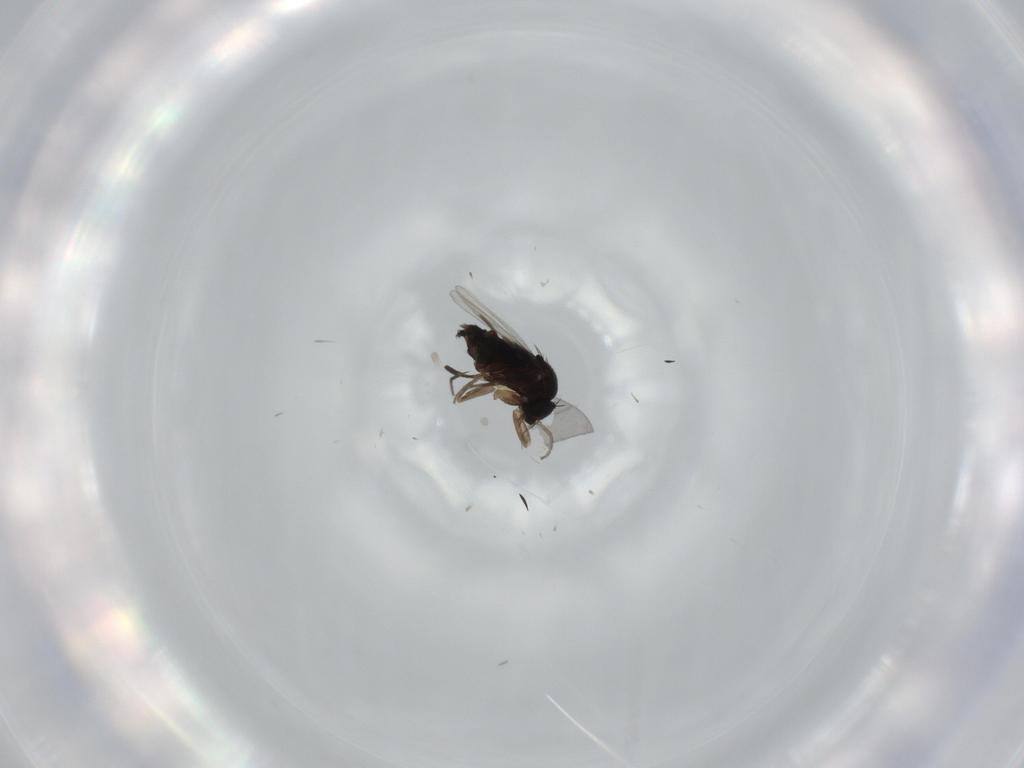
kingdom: Animalia
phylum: Arthropoda
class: Insecta
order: Diptera
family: Phoridae
